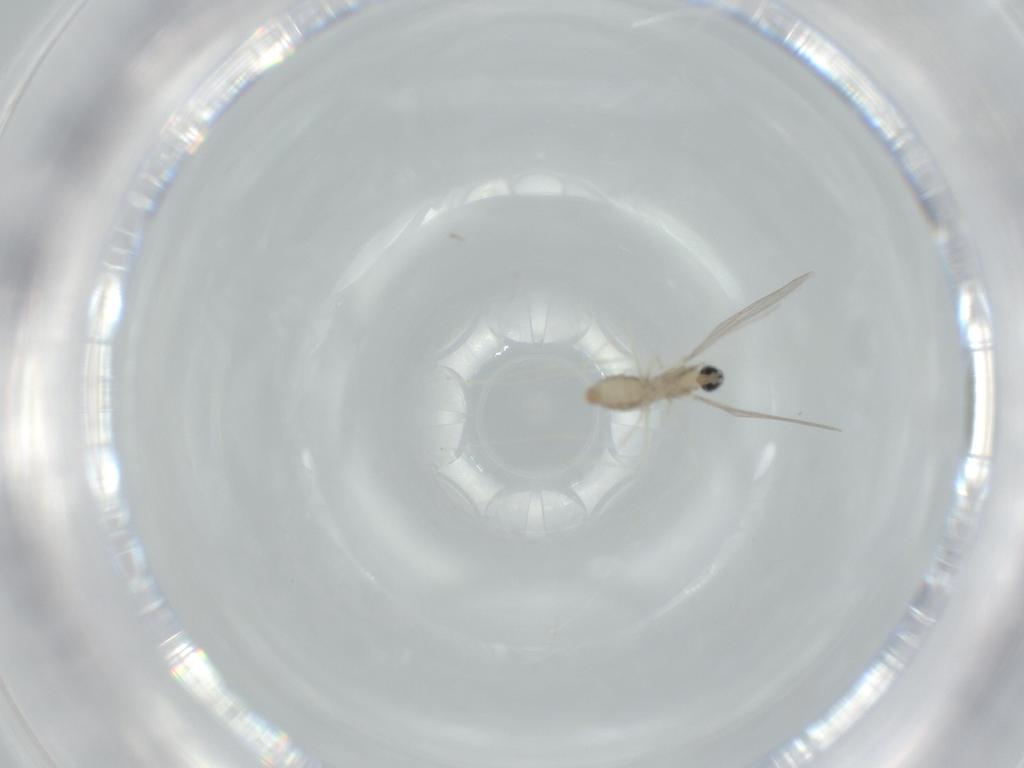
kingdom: Animalia
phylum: Arthropoda
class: Insecta
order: Diptera
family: Cecidomyiidae
